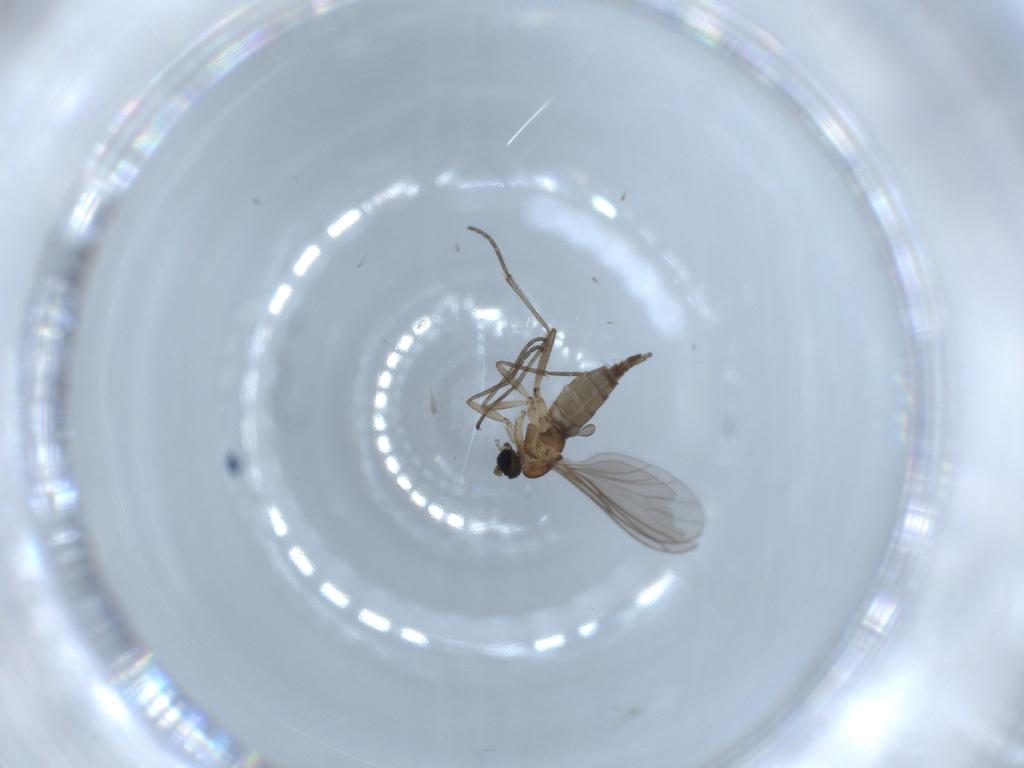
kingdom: Animalia
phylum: Arthropoda
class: Insecta
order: Diptera
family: Sciaridae
